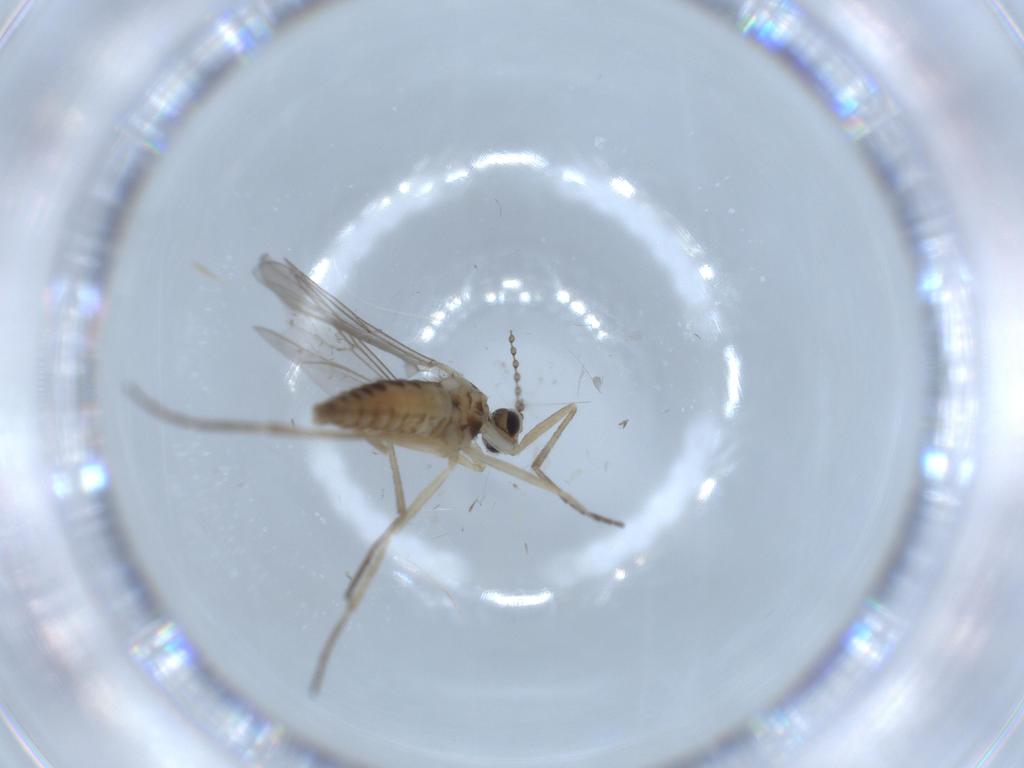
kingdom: Animalia
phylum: Arthropoda
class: Insecta
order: Diptera
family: Cecidomyiidae
